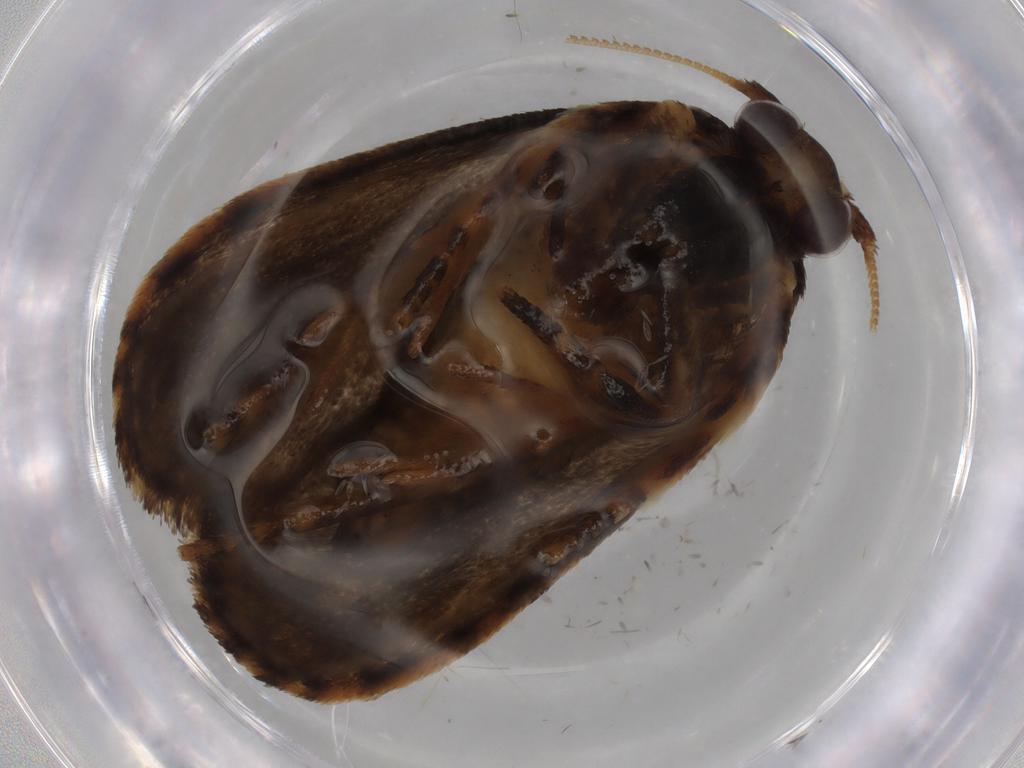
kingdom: Animalia
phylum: Arthropoda
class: Insecta
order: Lepidoptera
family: Tineidae
